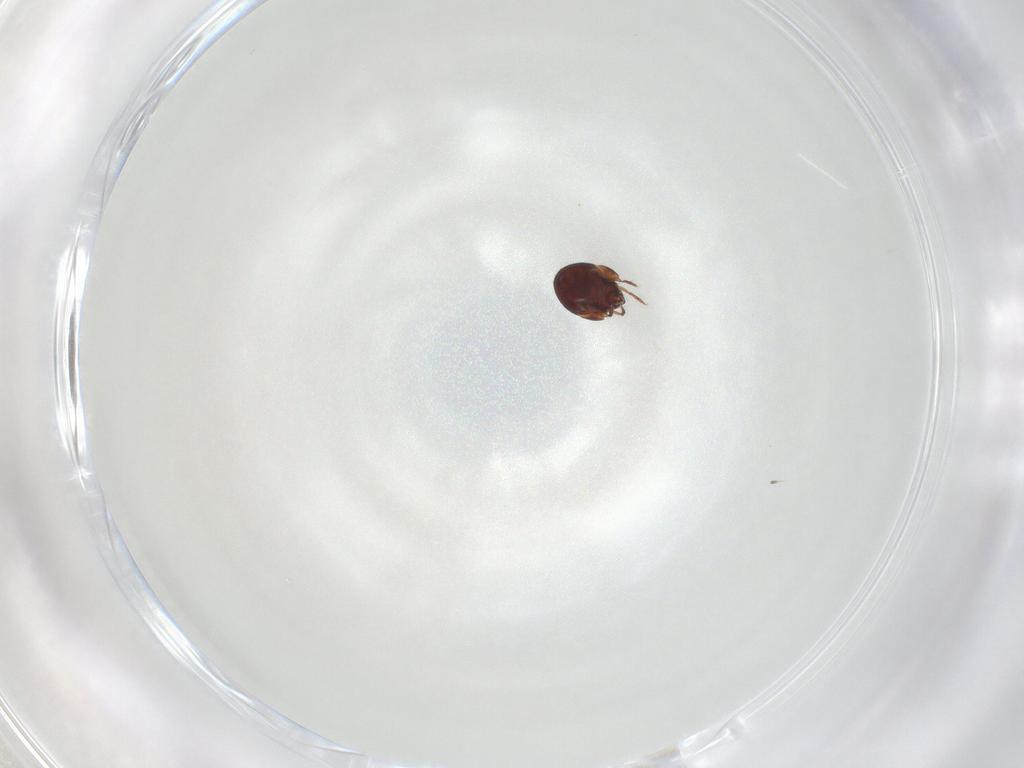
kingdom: Animalia
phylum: Arthropoda
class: Arachnida
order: Sarcoptiformes
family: Humerobatidae
